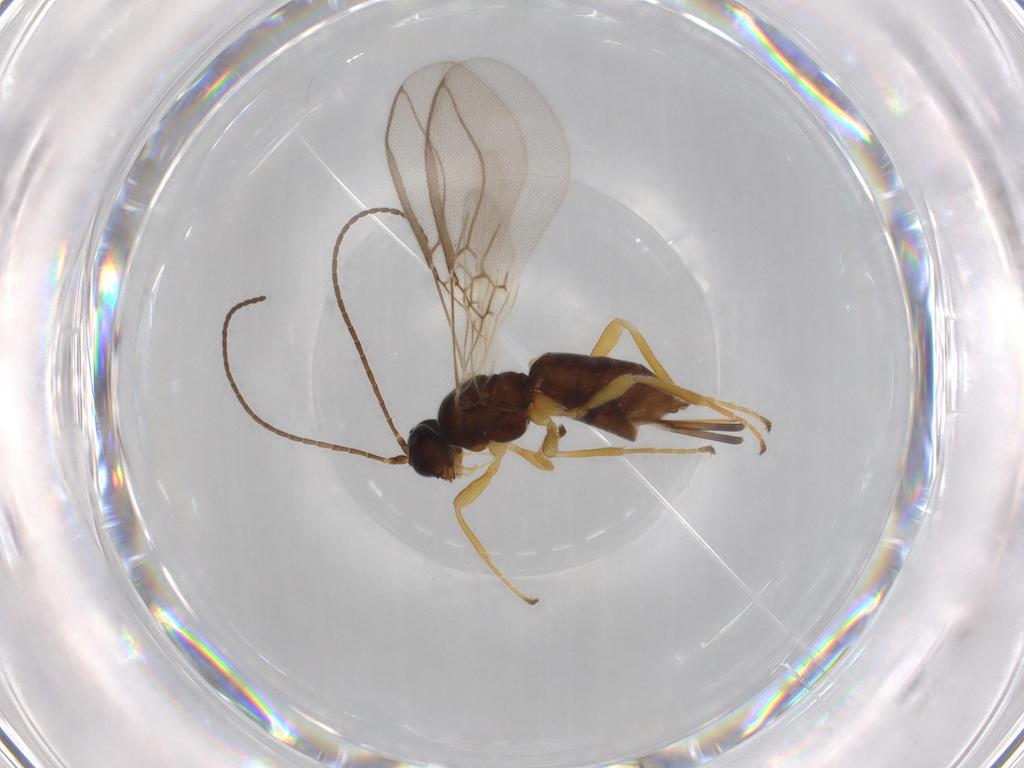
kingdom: Animalia
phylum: Arthropoda
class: Insecta
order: Hymenoptera
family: Braconidae
